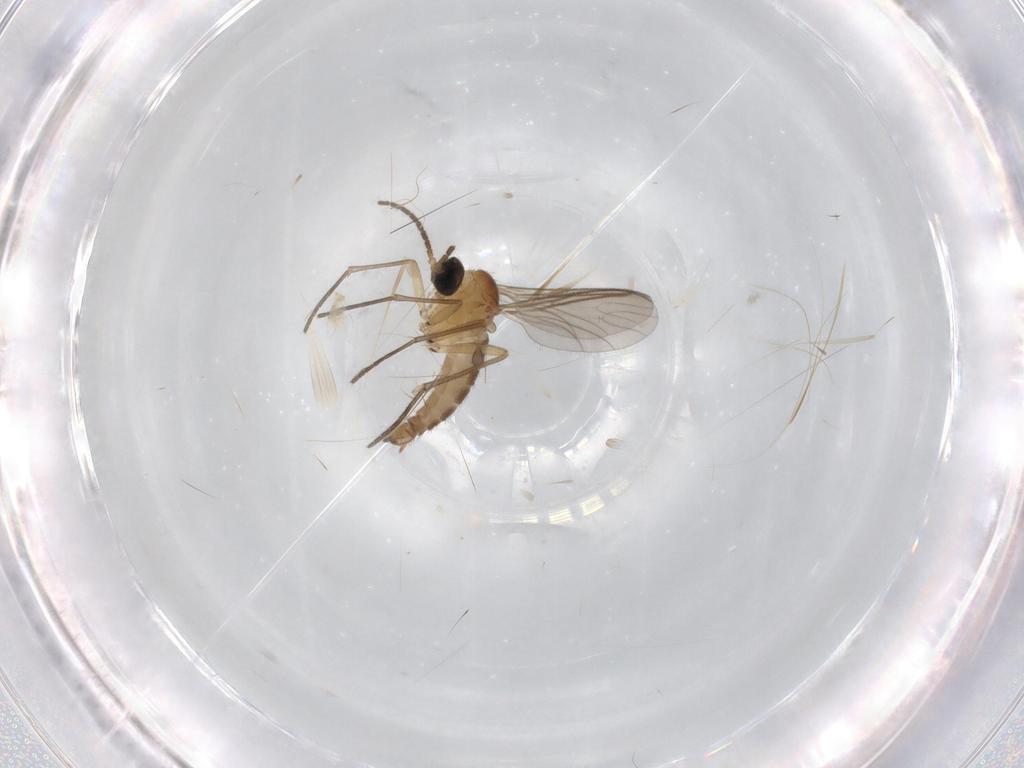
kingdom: Animalia
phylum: Arthropoda
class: Insecta
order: Diptera
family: Sciaridae
